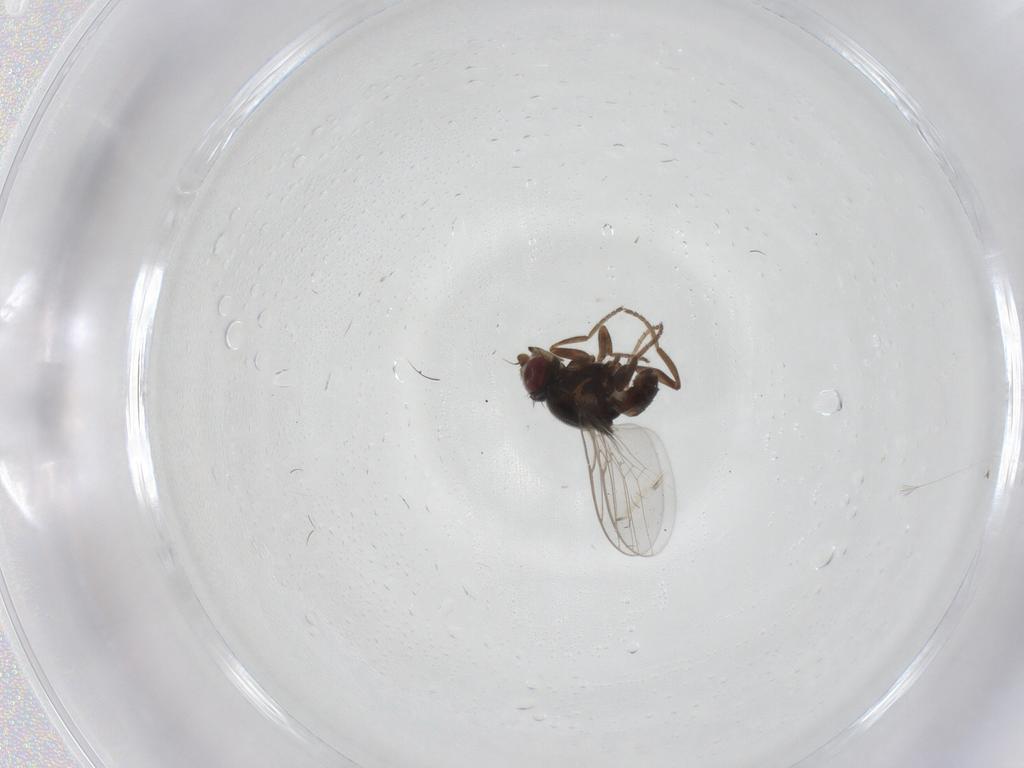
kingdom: Animalia
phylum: Arthropoda
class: Insecta
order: Diptera
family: Chloropidae
